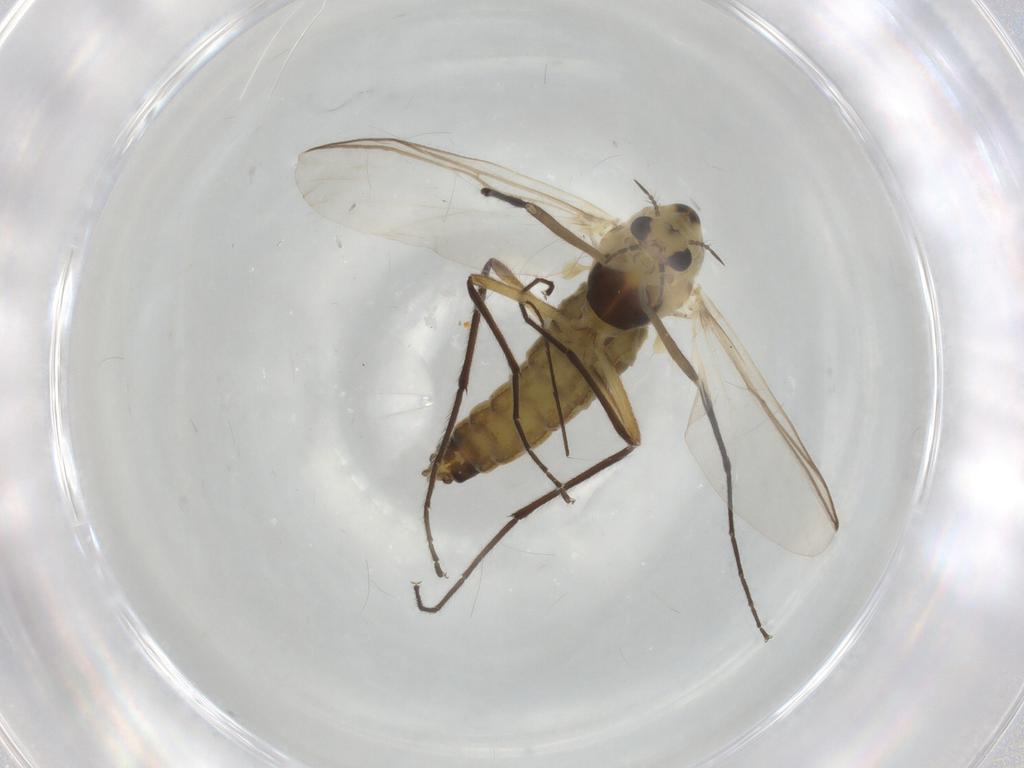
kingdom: Animalia
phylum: Arthropoda
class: Insecta
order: Diptera
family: Chironomidae
